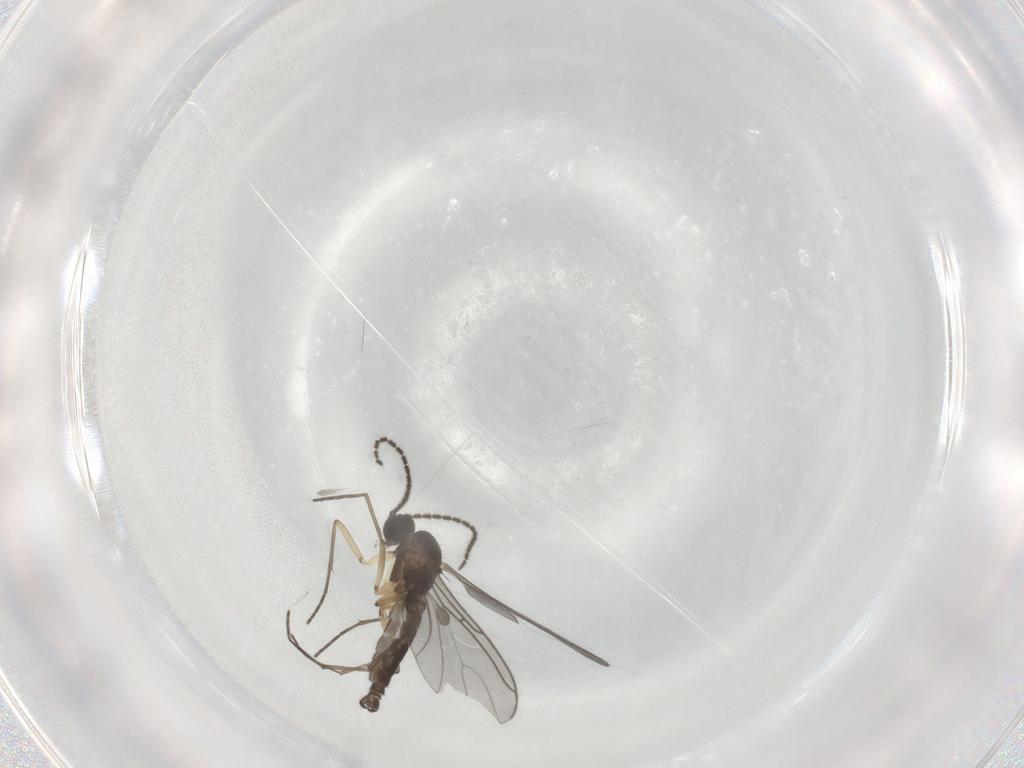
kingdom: Animalia
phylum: Arthropoda
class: Insecta
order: Diptera
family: Sciaridae
